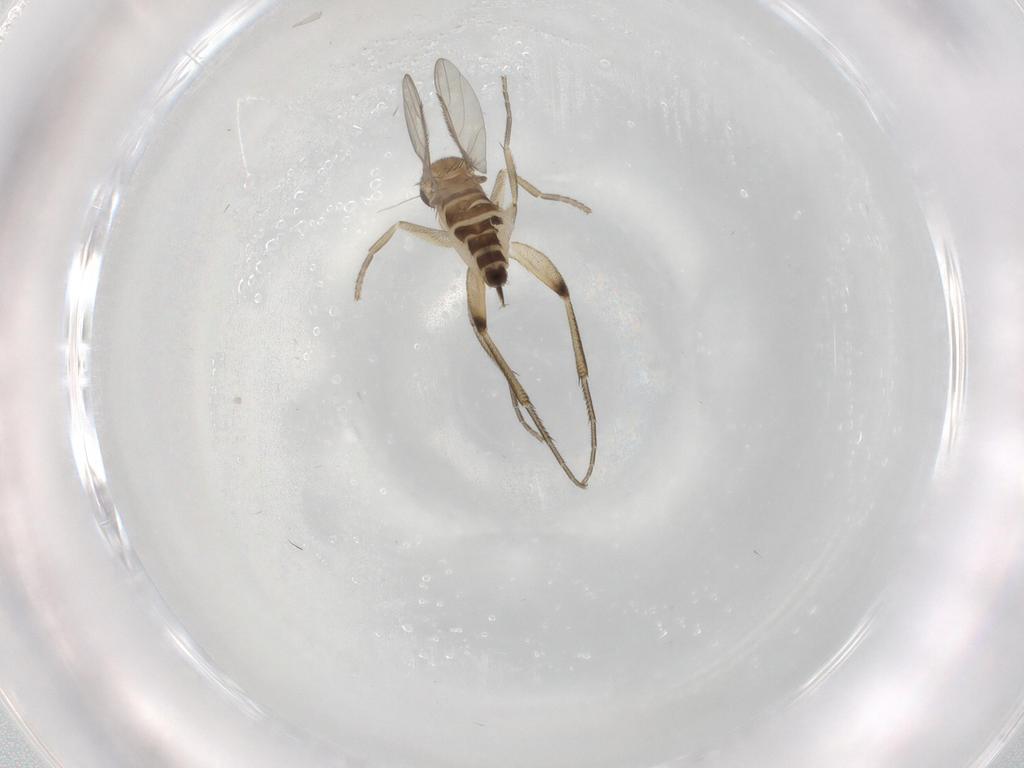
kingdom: Animalia
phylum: Arthropoda
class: Insecta
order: Diptera
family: Phoridae
